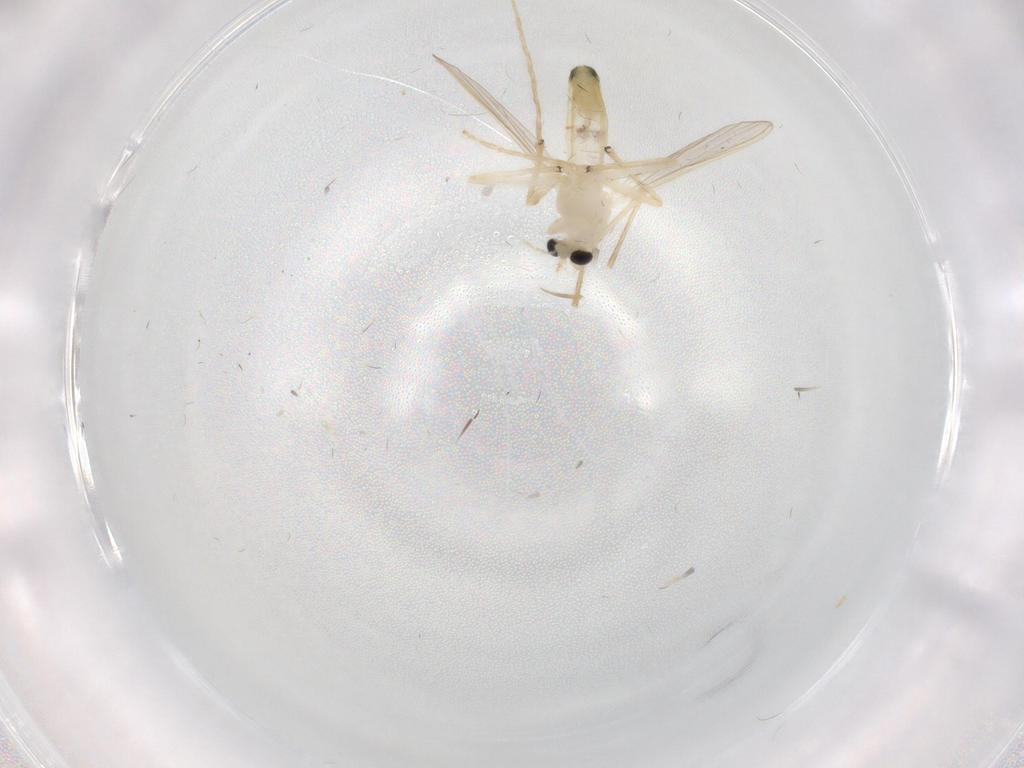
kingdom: Animalia
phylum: Arthropoda
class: Insecta
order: Diptera
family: Chironomidae
